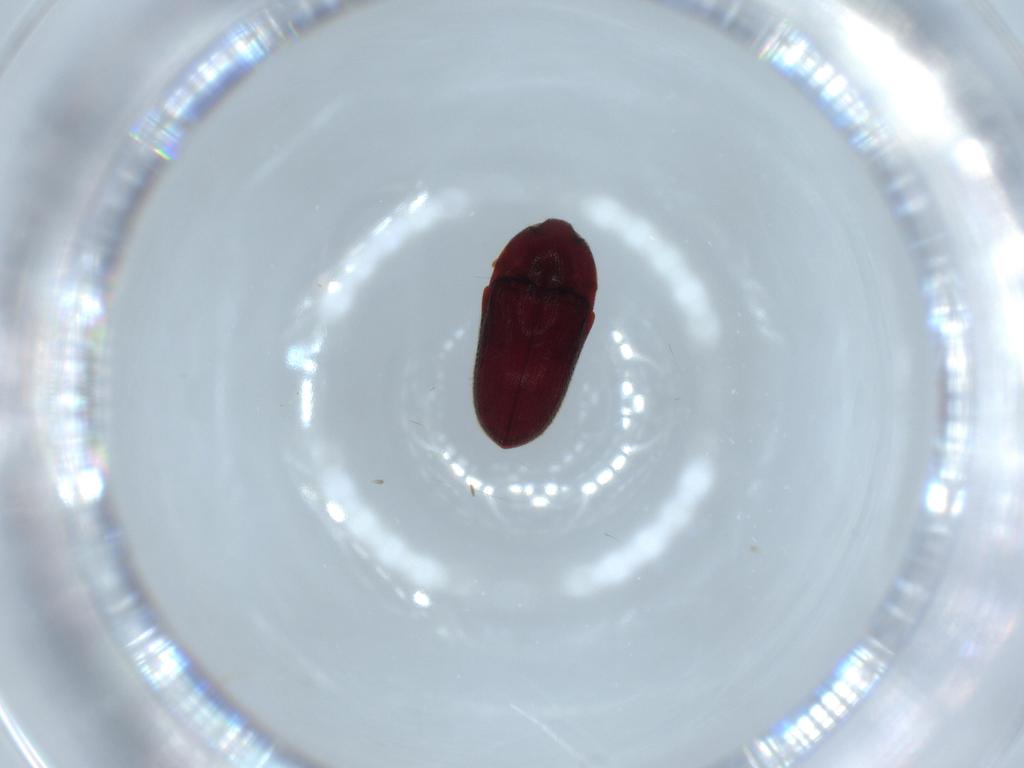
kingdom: Animalia
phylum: Arthropoda
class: Insecta
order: Coleoptera
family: Throscidae
